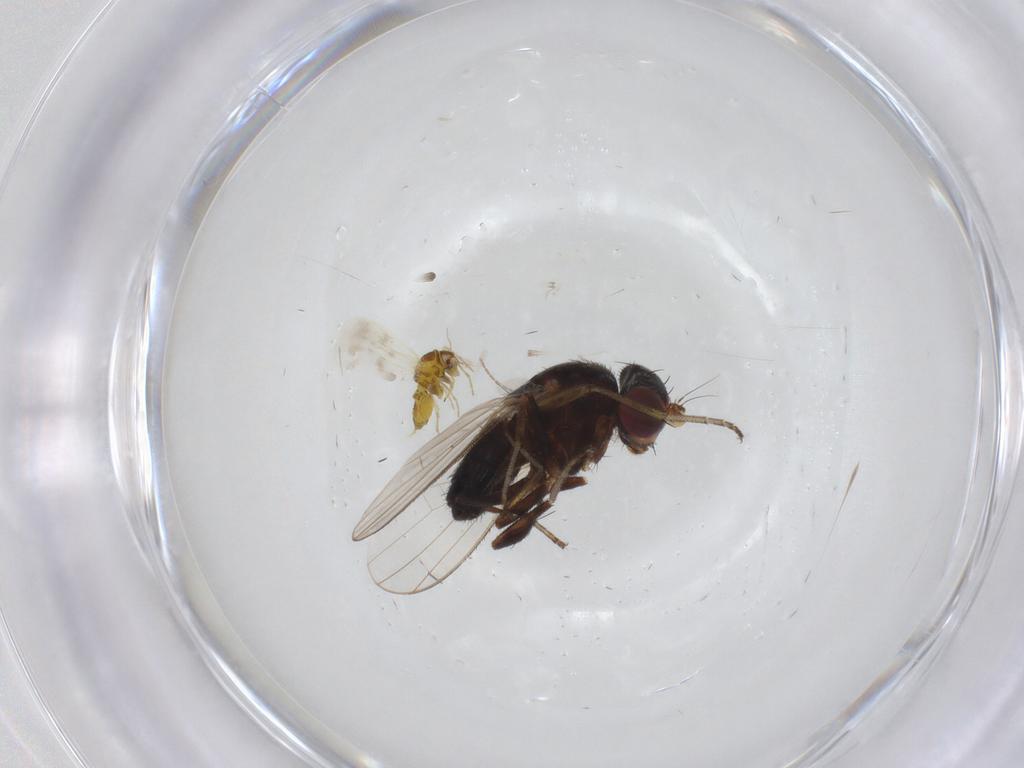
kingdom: Animalia
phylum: Arthropoda
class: Insecta
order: Diptera
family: Heleomyzidae
